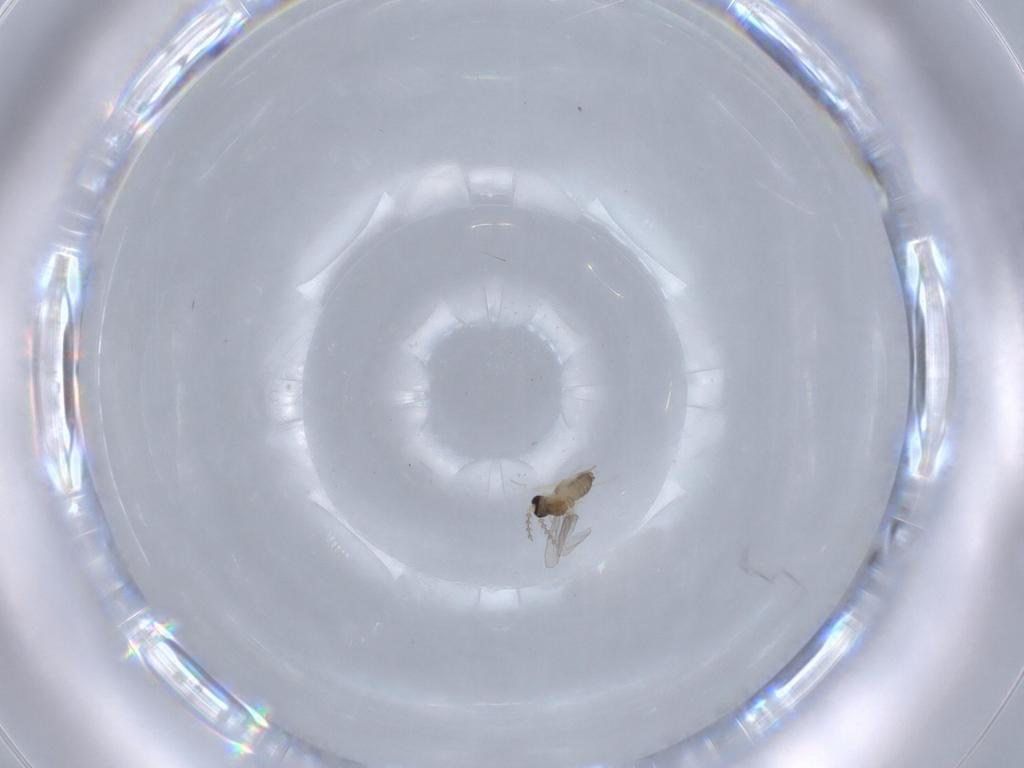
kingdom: Animalia
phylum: Arthropoda
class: Insecta
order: Diptera
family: Cecidomyiidae
